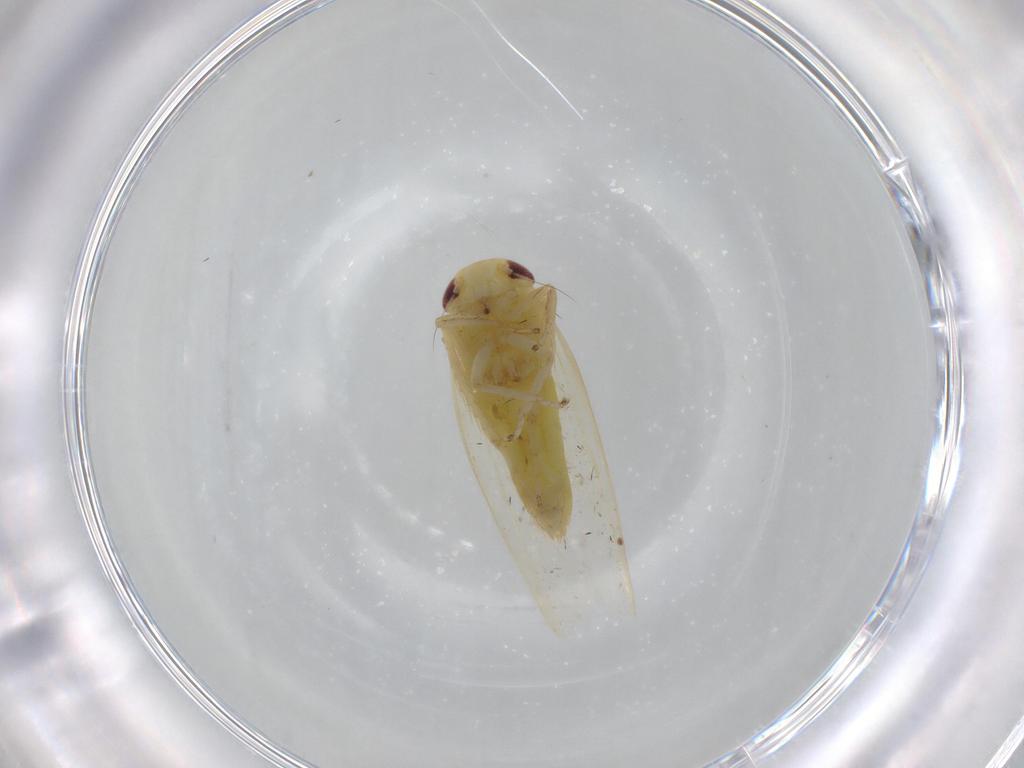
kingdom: Animalia
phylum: Arthropoda
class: Insecta
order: Hemiptera
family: Cicadellidae
